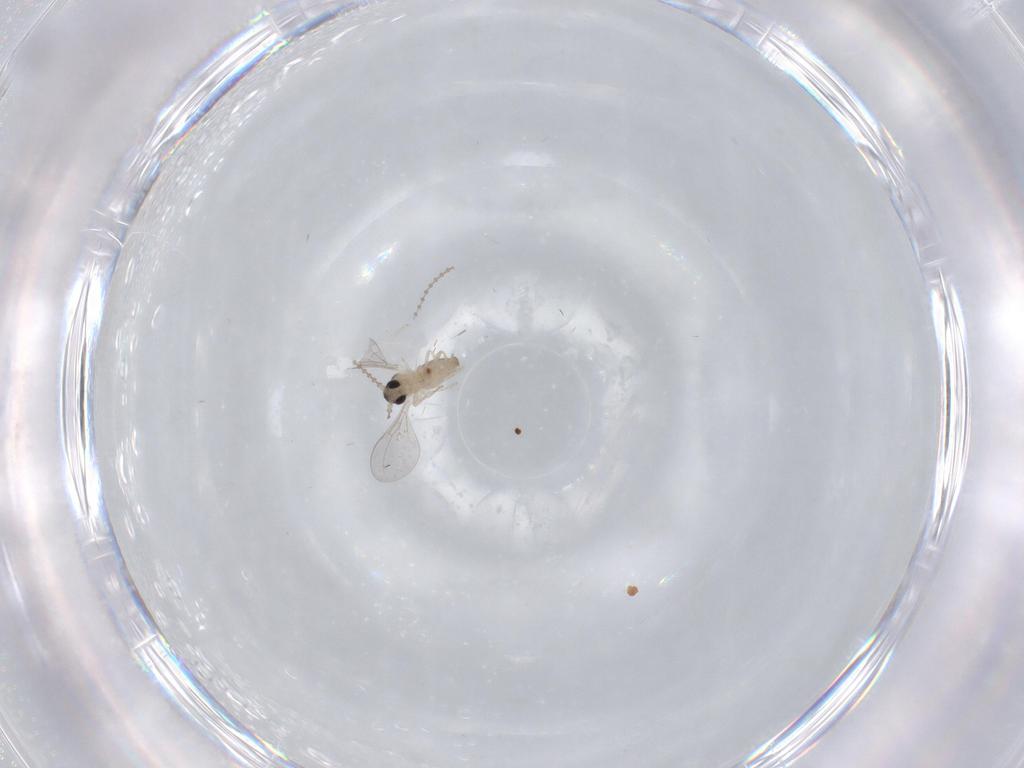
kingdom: Animalia
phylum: Arthropoda
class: Insecta
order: Diptera
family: Cecidomyiidae
